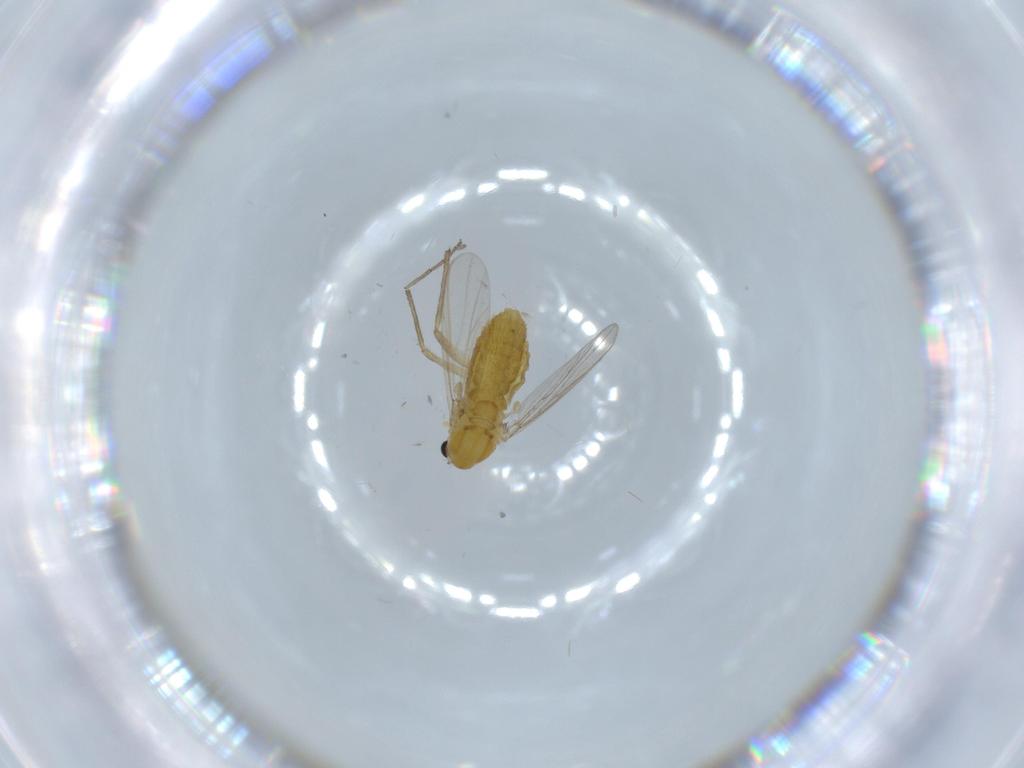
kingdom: Animalia
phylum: Arthropoda
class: Insecta
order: Diptera
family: Chironomidae
